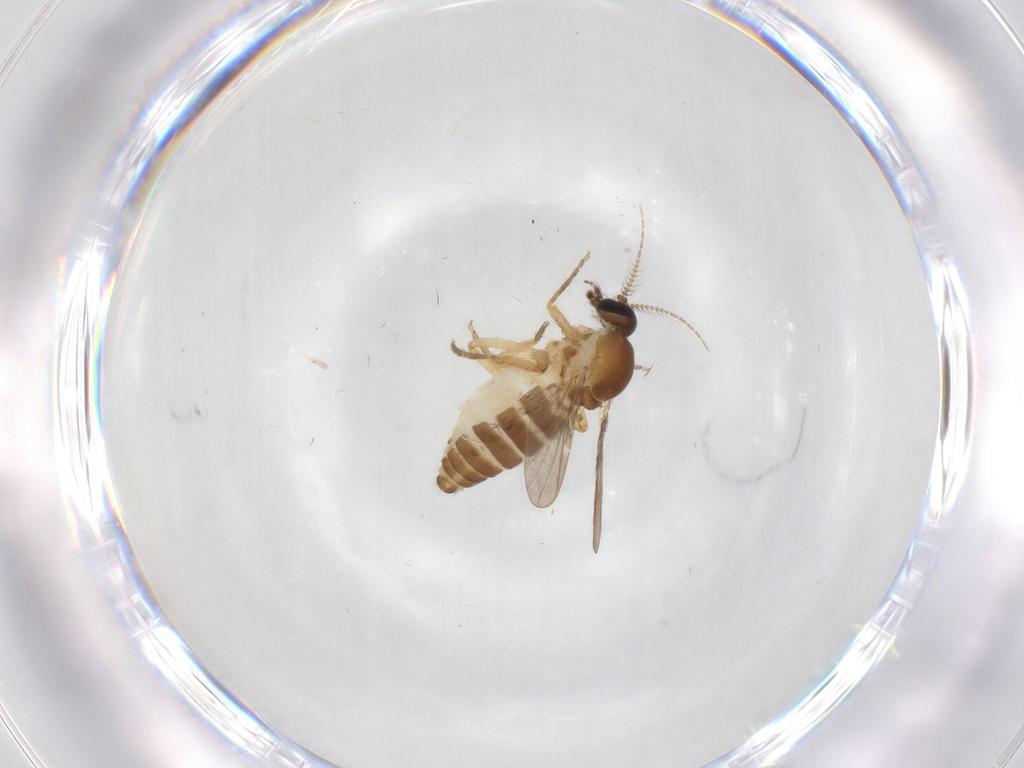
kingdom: Animalia
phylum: Arthropoda
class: Insecta
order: Diptera
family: Ceratopogonidae
